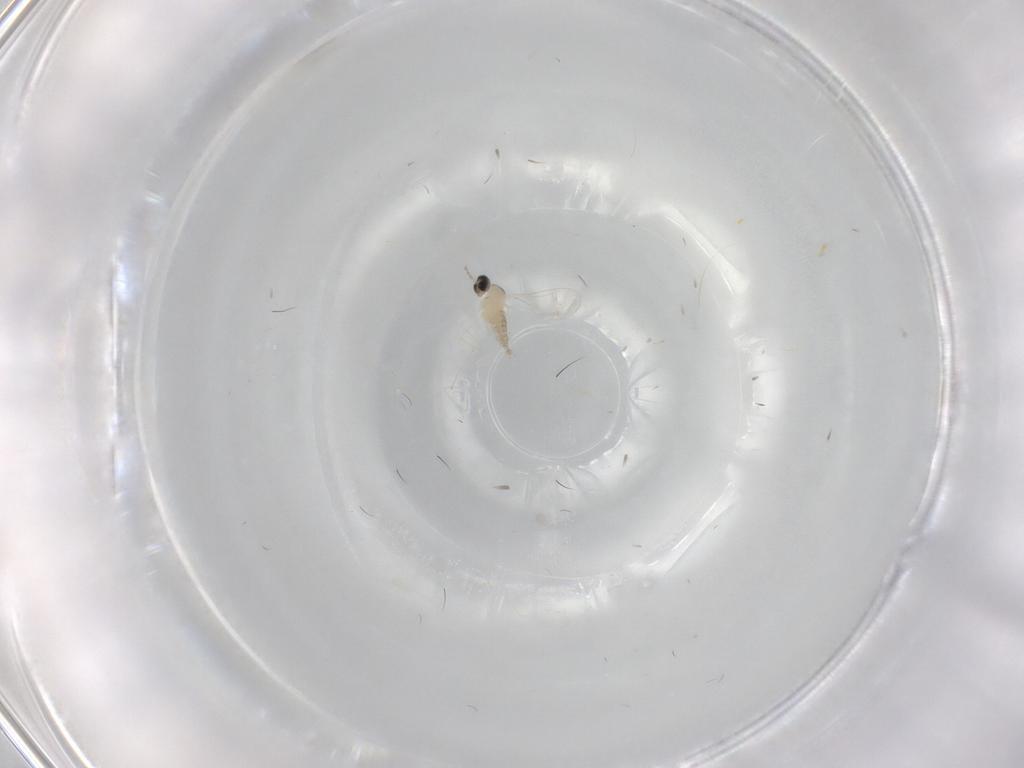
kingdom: Animalia
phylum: Arthropoda
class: Insecta
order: Diptera
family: Cecidomyiidae
